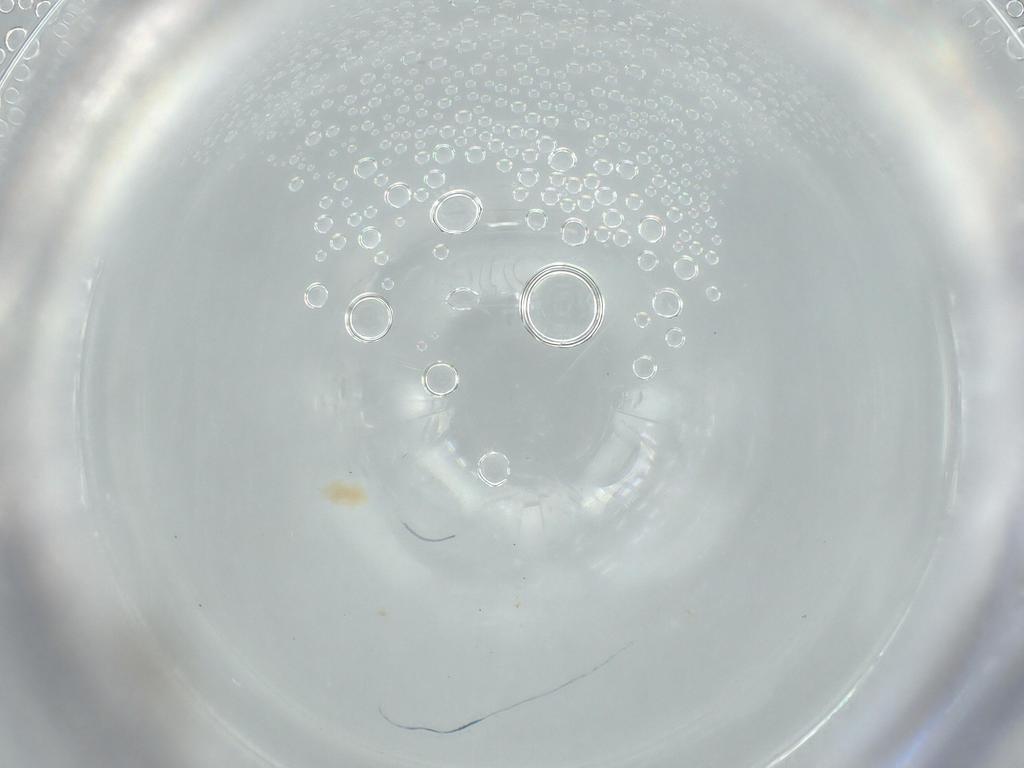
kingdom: Animalia
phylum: Arthropoda
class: Arachnida
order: Trombidiformes
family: Eupodidae
